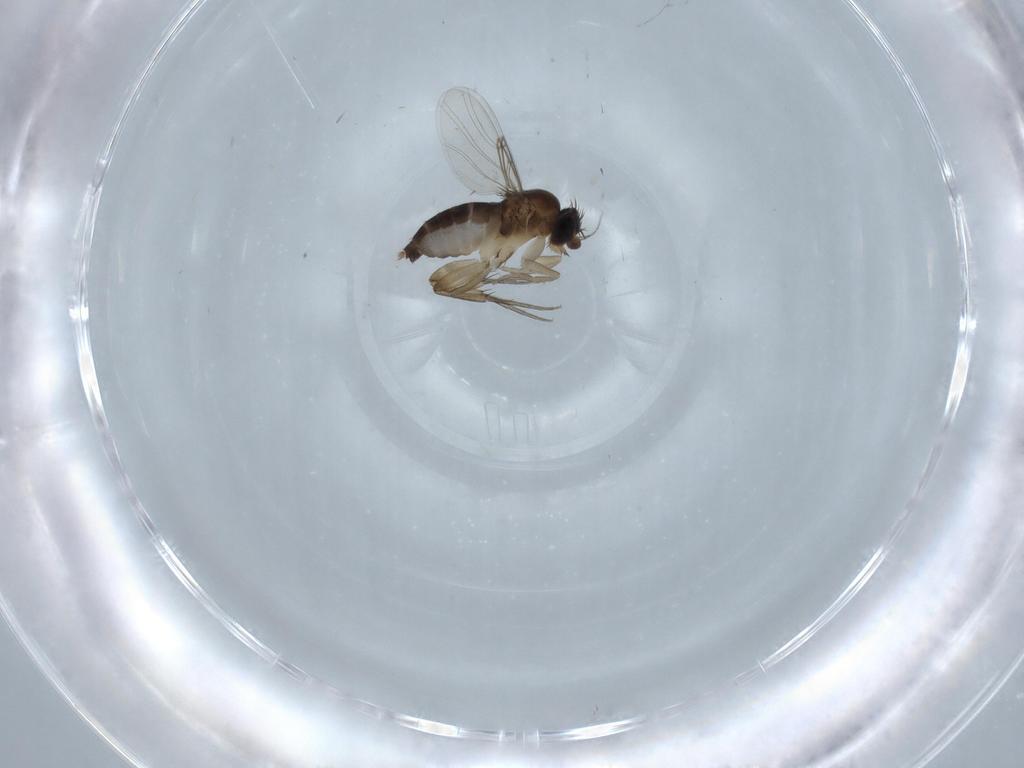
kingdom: Animalia
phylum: Arthropoda
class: Insecta
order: Diptera
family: Phoridae
